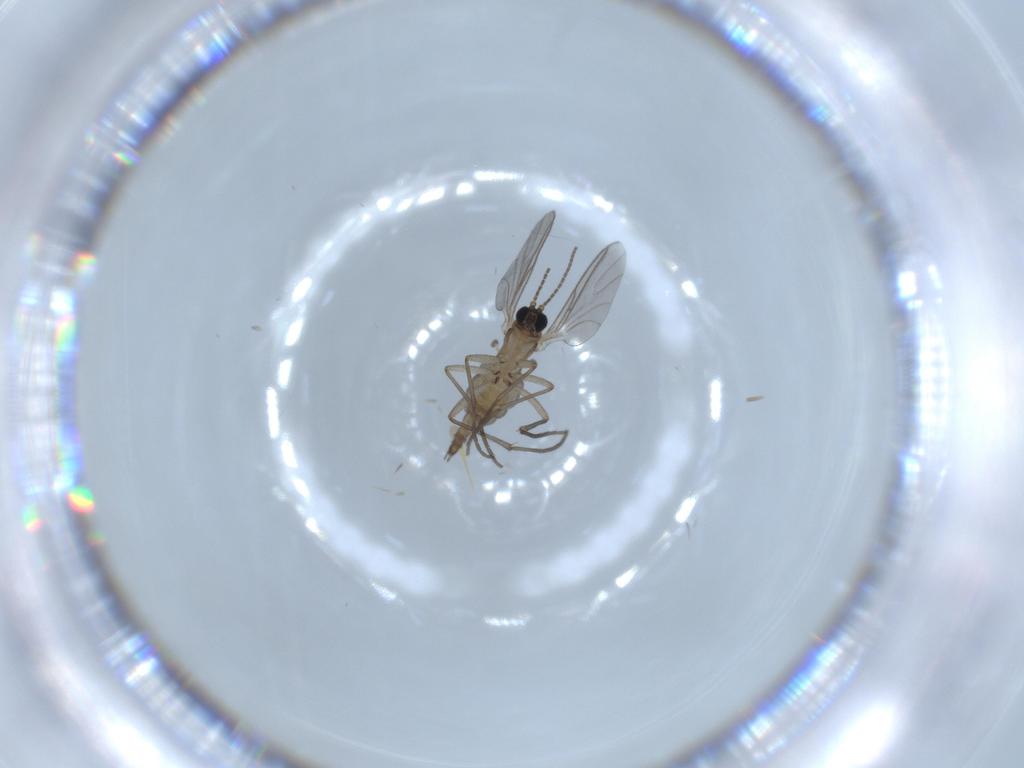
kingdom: Animalia
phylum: Arthropoda
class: Insecta
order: Diptera
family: Sciaridae
